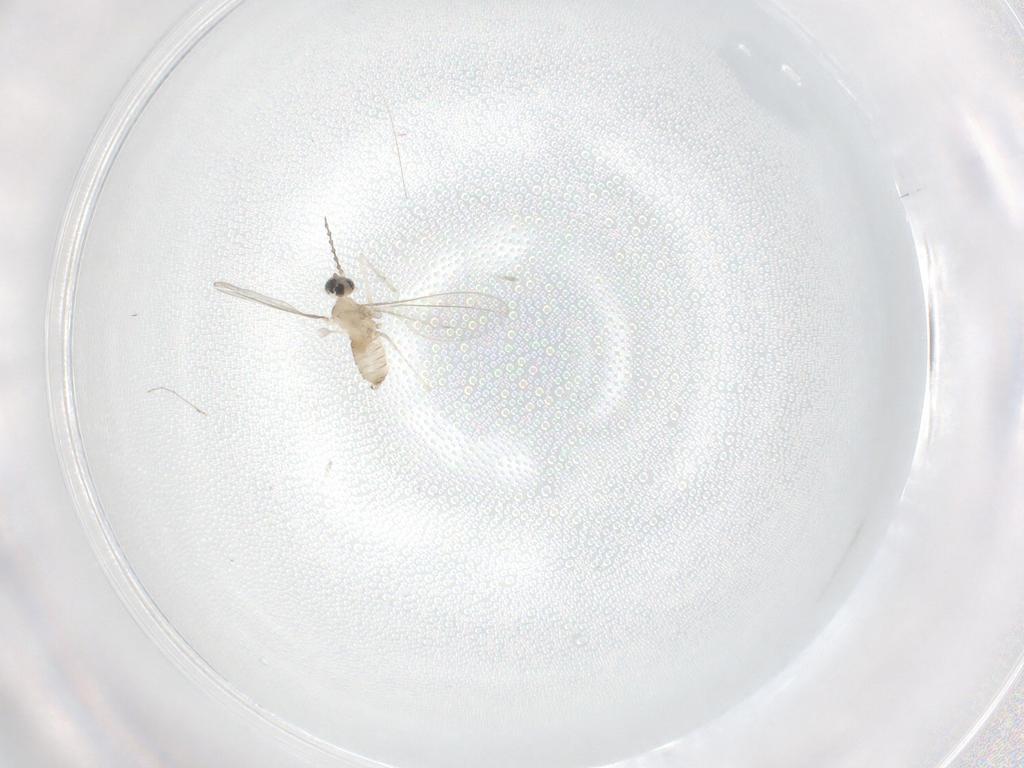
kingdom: Animalia
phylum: Arthropoda
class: Insecta
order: Diptera
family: Cecidomyiidae
